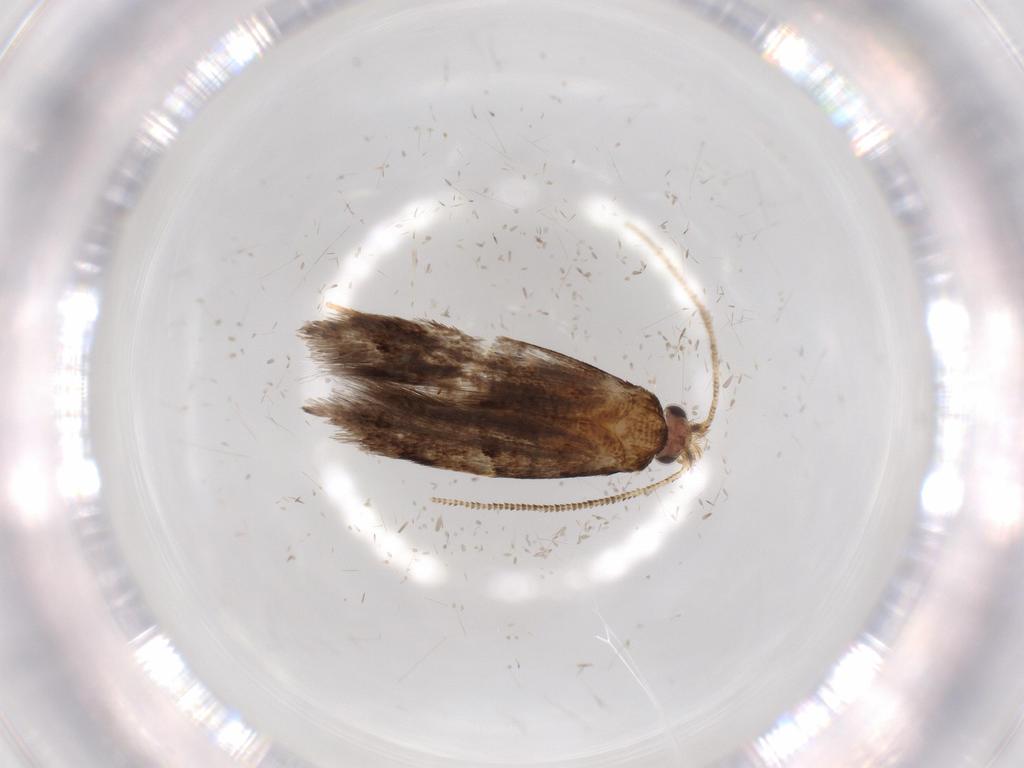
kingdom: Animalia
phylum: Arthropoda
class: Insecta
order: Lepidoptera
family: Tineidae
